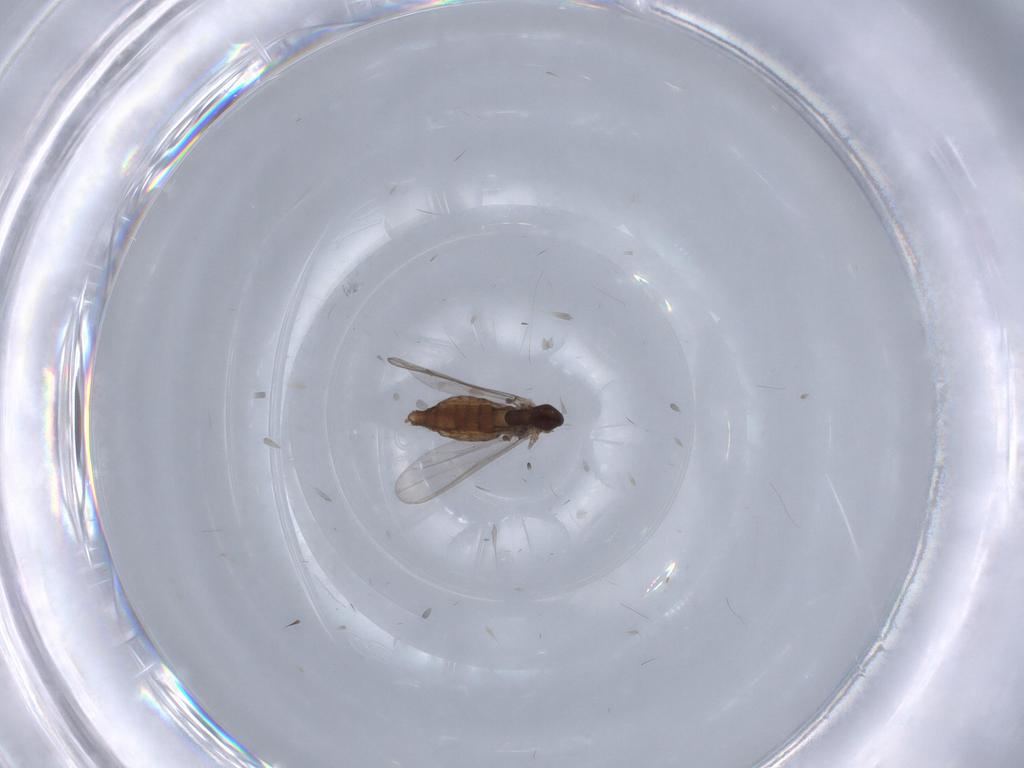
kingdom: Animalia
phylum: Arthropoda
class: Insecta
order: Diptera
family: Chironomidae
